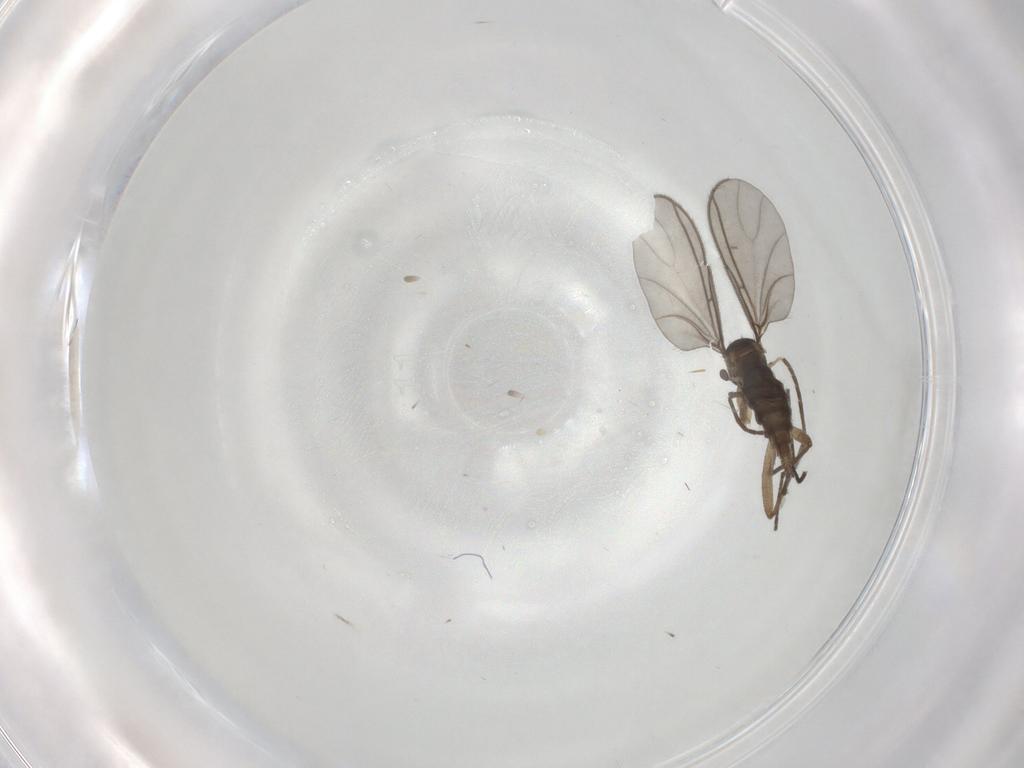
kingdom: Animalia
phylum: Arthropoda
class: Insecta
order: Diptera
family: Sciaridae
